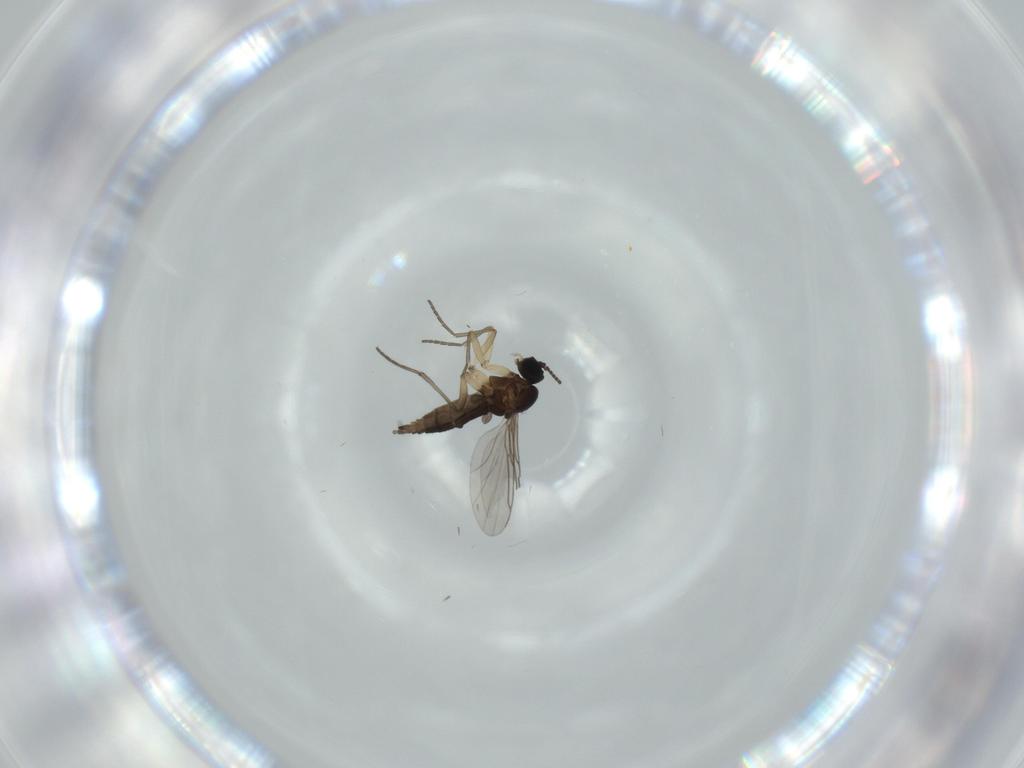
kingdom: Animalia
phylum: Arthropoda
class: Insecta
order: Diptera
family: Sciaridae
